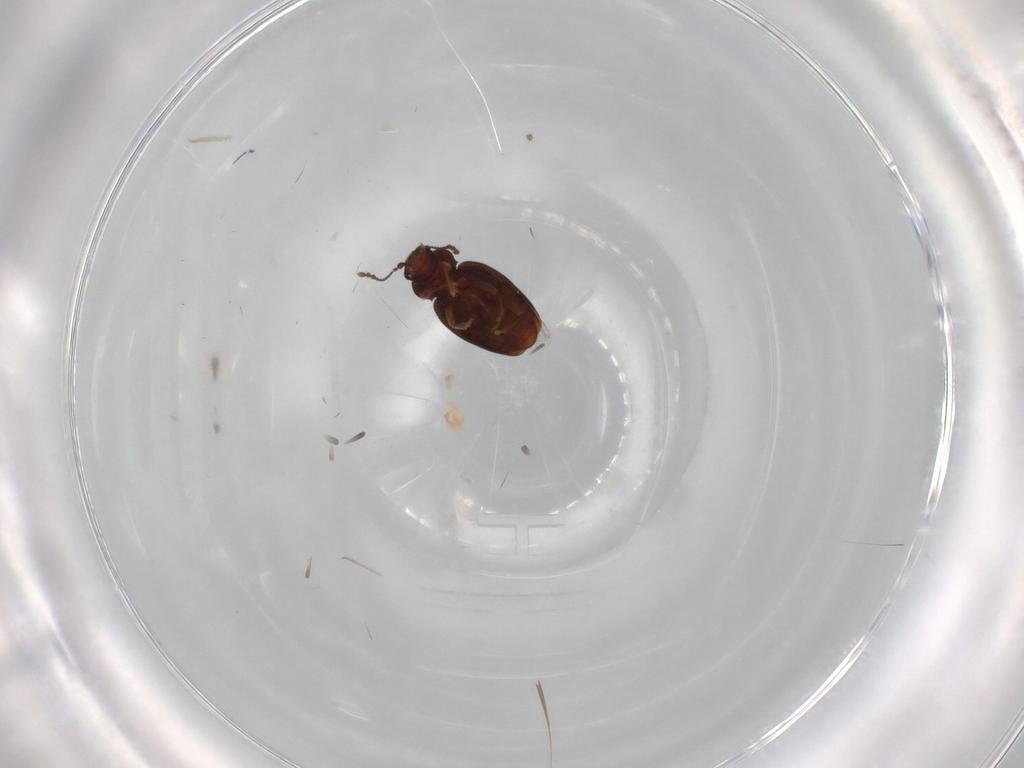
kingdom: Animalia
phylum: Arthropoda
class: Insecta
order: Coleoptera
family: Latridiidae
